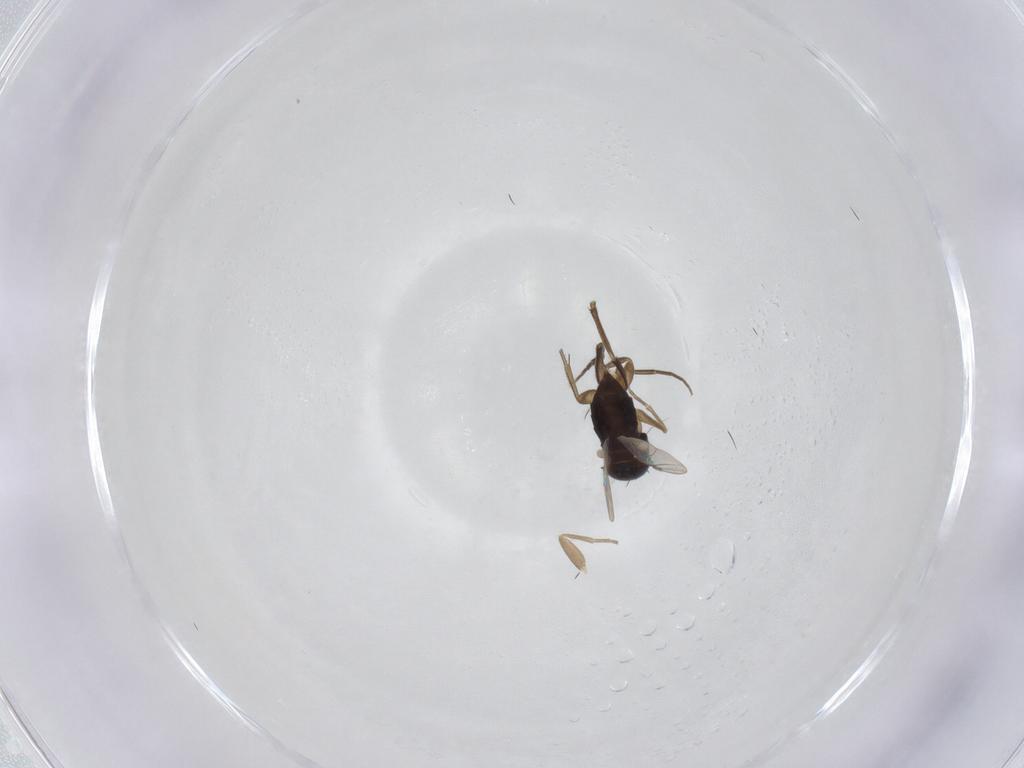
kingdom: Animalia
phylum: Arthropoda
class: Insecta
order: Diptera
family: Phoridae
